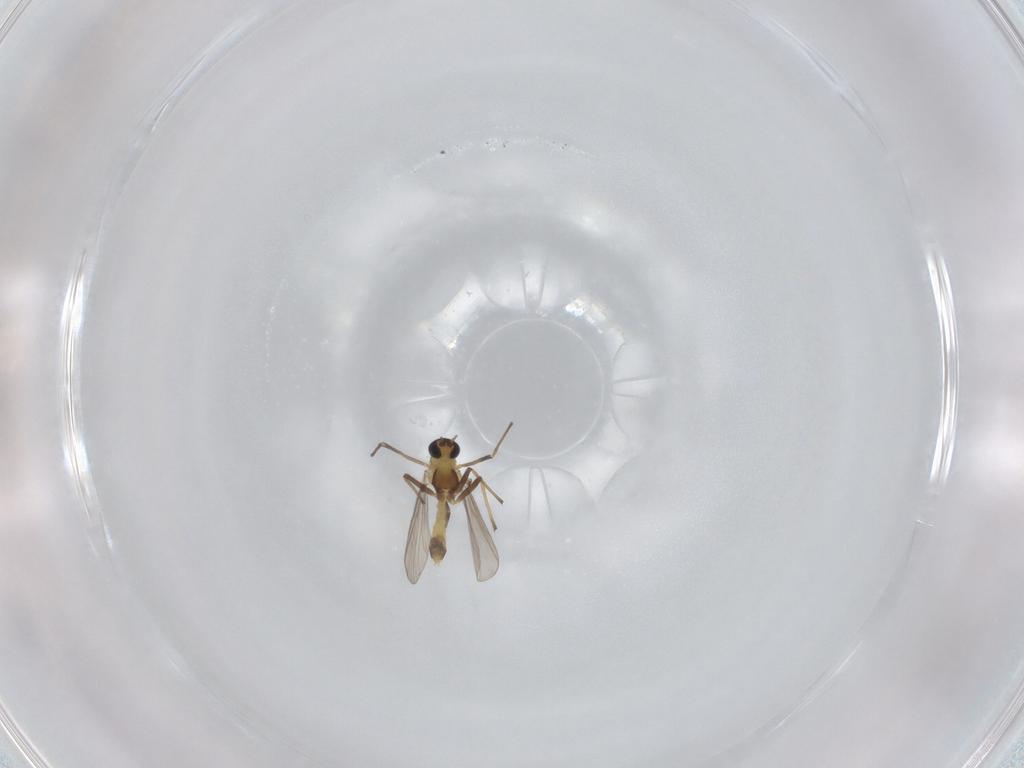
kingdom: Animalia
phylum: Arthropoda
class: Insecta
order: Diptera
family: Chironomidae
